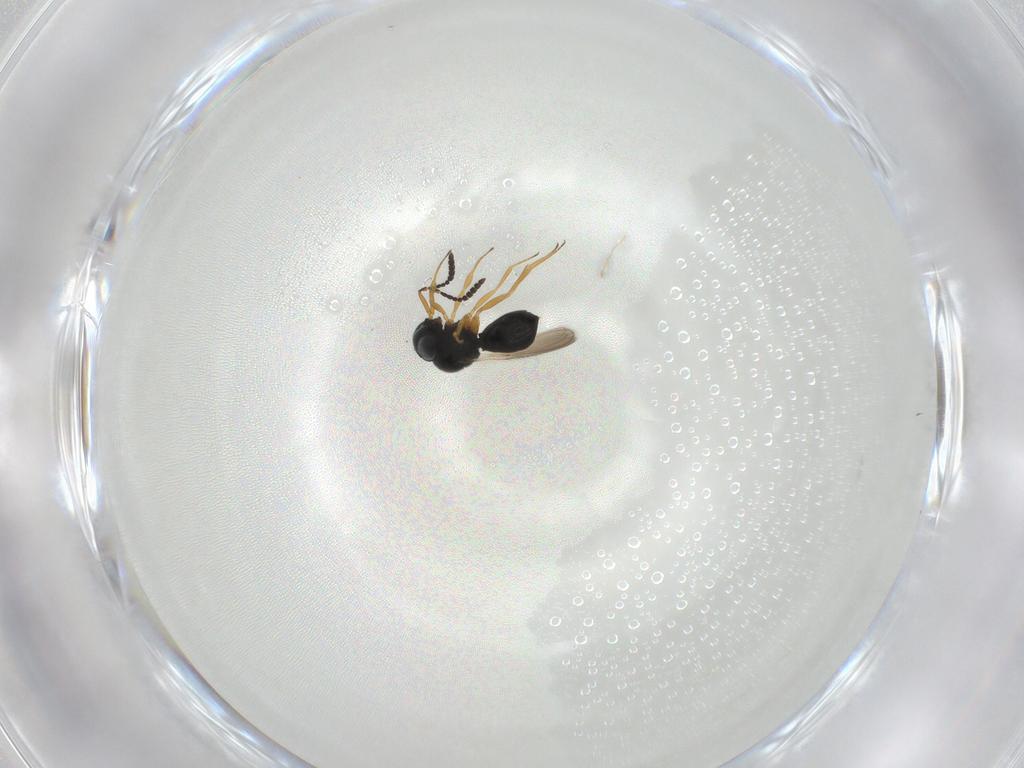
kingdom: Animalia
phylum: Arthropoda
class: Insecta
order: Hymenoptera
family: Scelionidae
